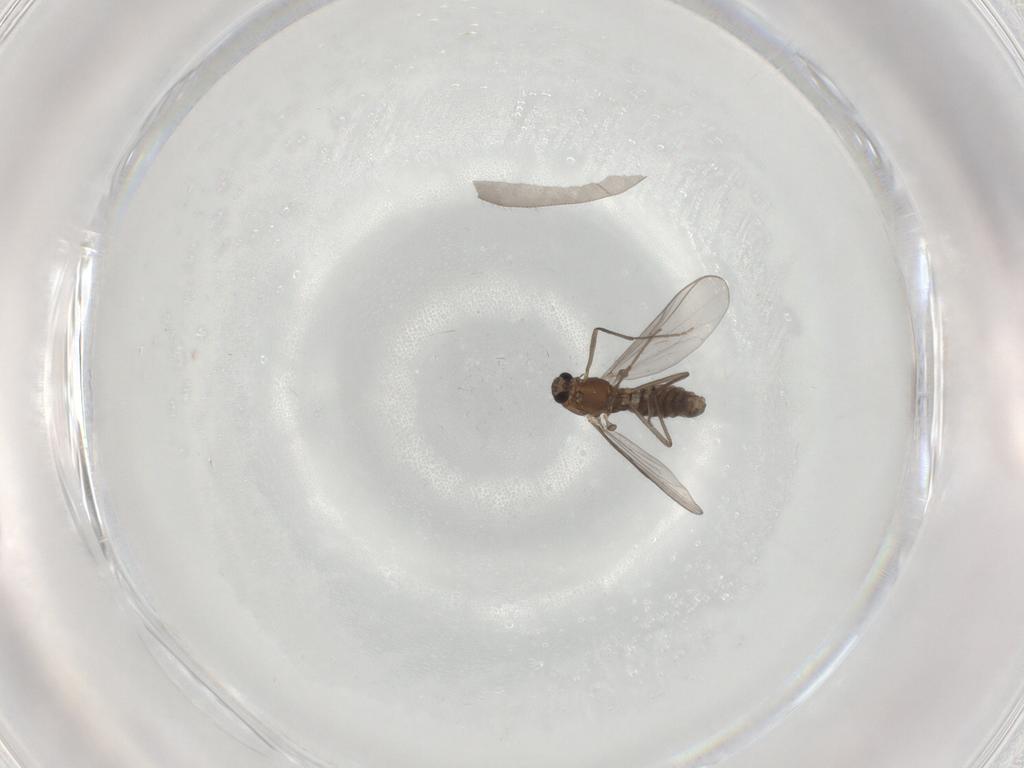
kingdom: Animalia
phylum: Arthropoda
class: Insecta
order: Diptera
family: Chironomidae
